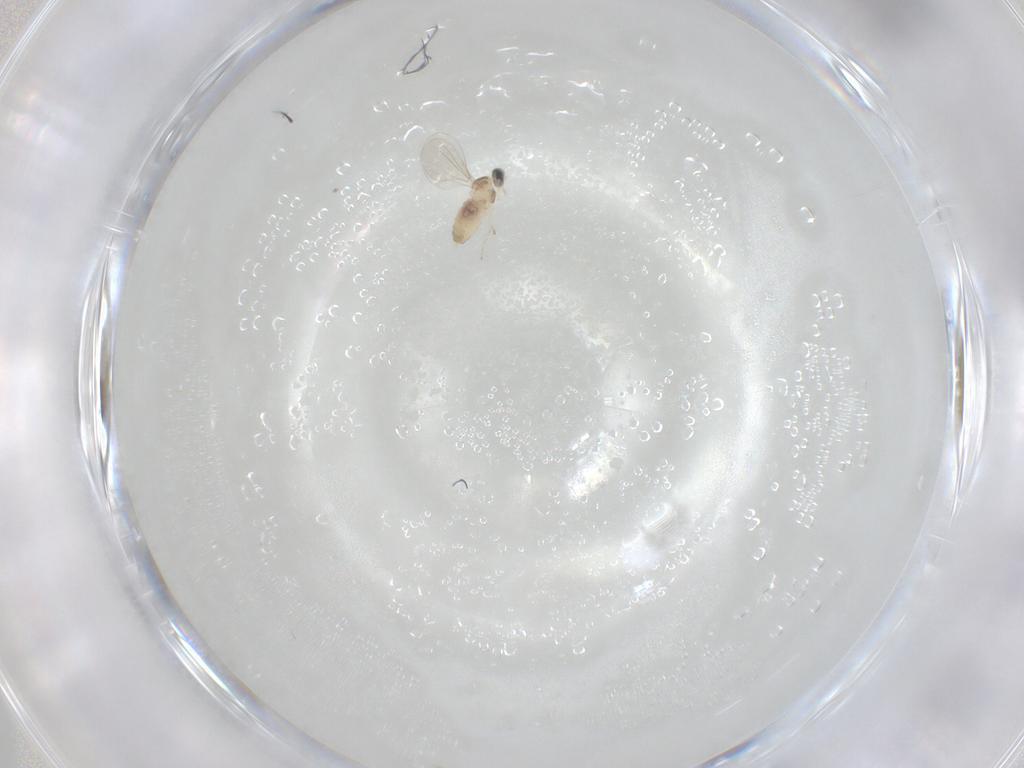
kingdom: Animalia
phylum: Arthropoda
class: Insecta
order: Diptera
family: Cecidomyiidae
